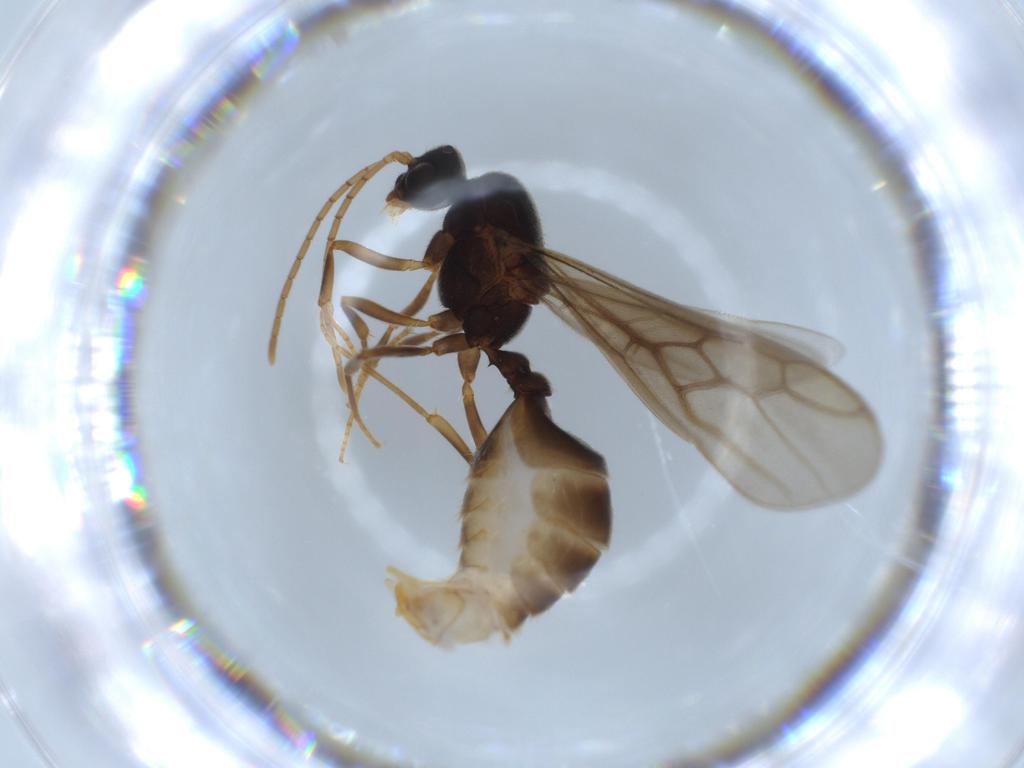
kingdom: Animalia
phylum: Arthropoda
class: Insecta
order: Hymenoptera
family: Formicidae
